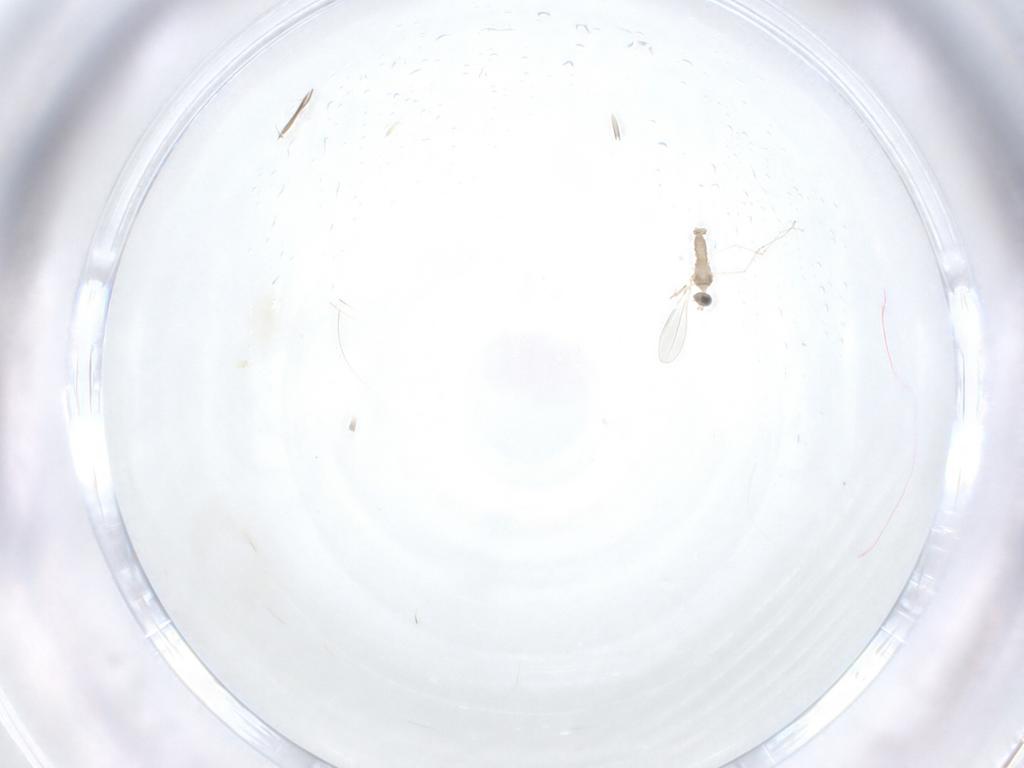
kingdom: Animalia
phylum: Arthropoda
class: Insecta
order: Diptera
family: Cecidomyiidae
